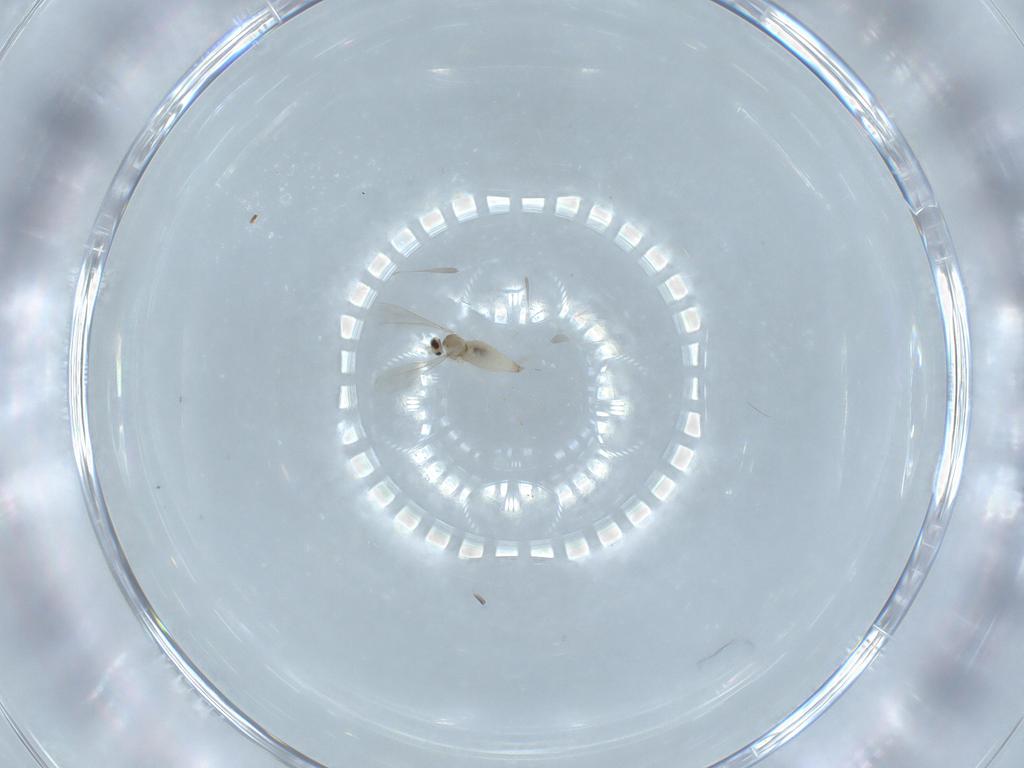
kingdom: Animalia
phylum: Arthropoda
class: Insecta
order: Diptera
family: Cecidomyiidae
